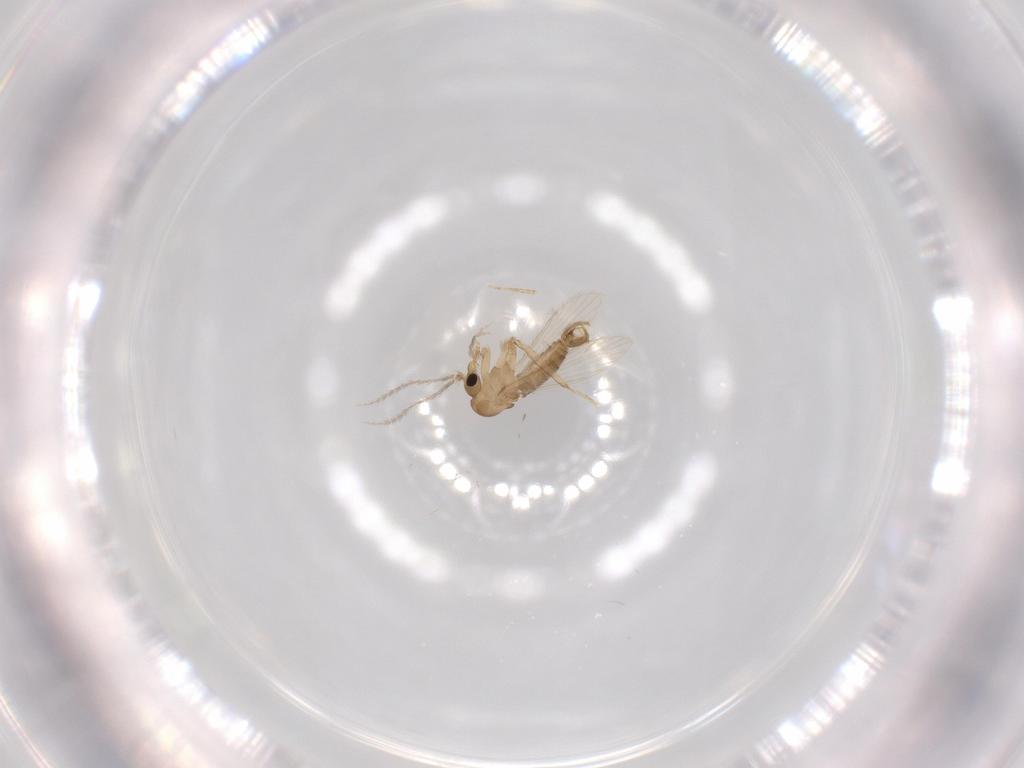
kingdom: Animalia
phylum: Arthropoda
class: Insecta
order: Diptera
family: Psychodidae
